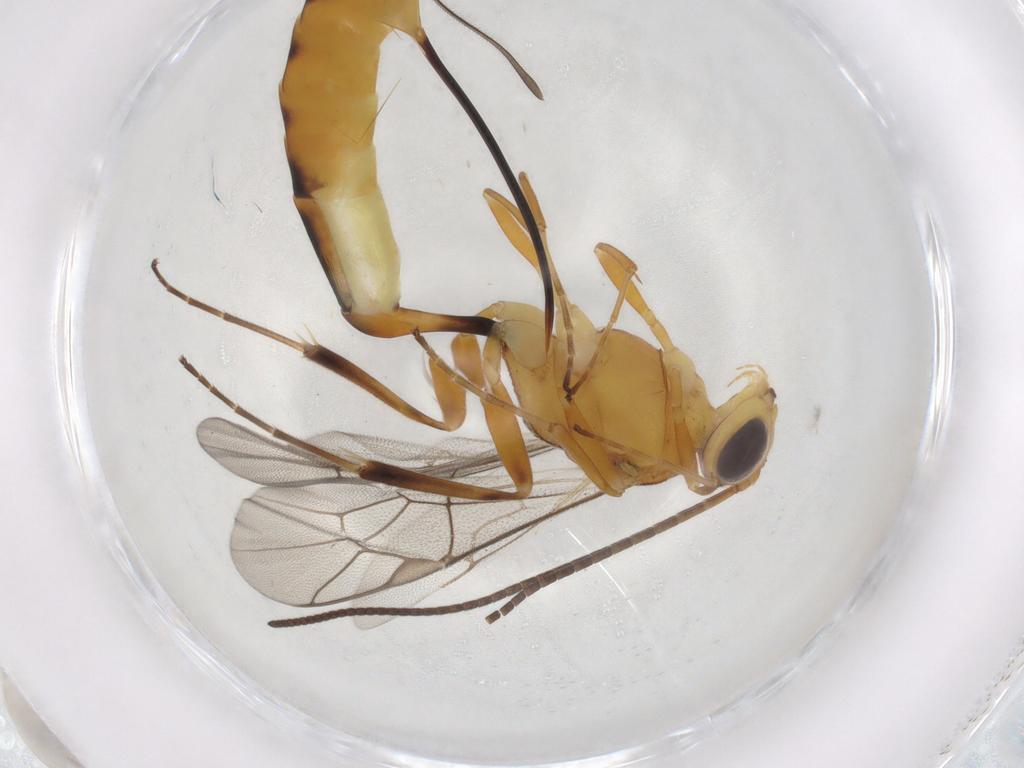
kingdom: Animalia
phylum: Arthropoda
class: Insecta
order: Hymenoptera
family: Ichneumonidae
